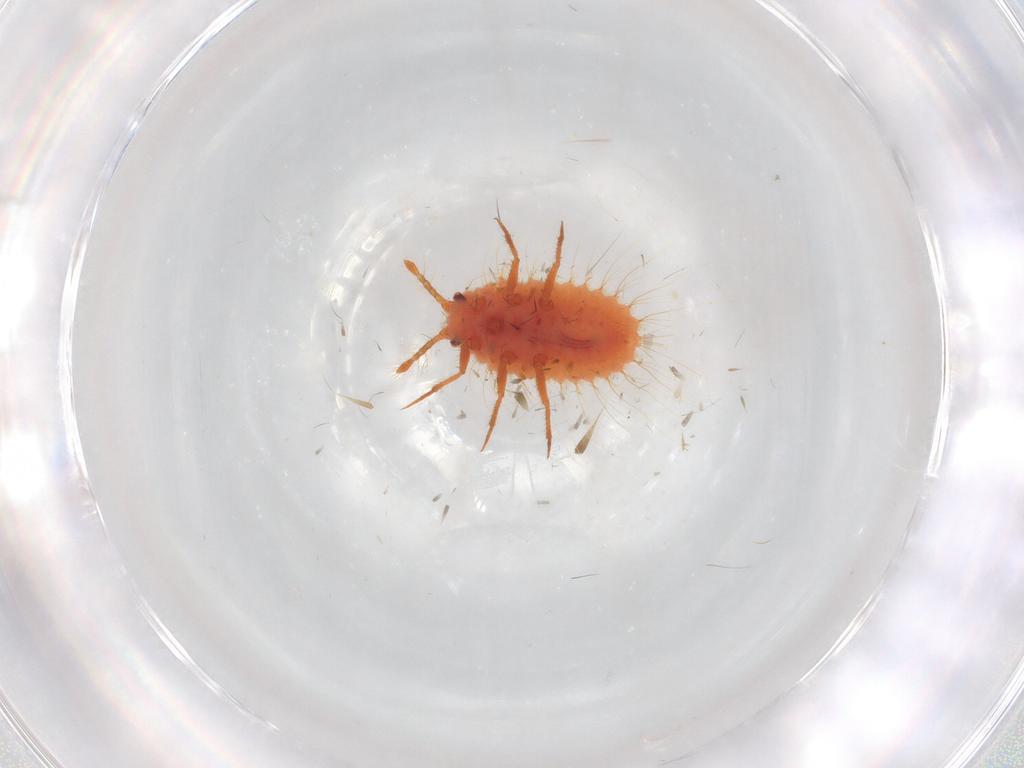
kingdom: Animalia
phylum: Arthropoda
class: Insecta
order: Hemiptera
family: Cicadellidae
